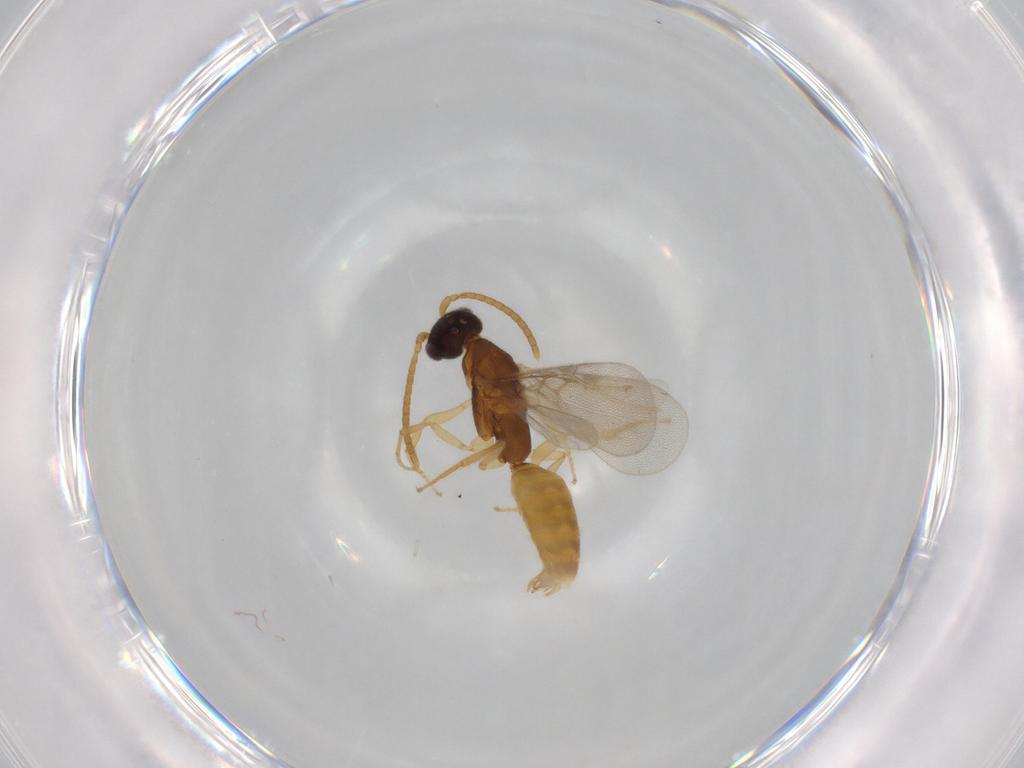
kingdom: Animalia
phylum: Arthropoda
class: Insecta
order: Hymenoptera
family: Bethylidae
